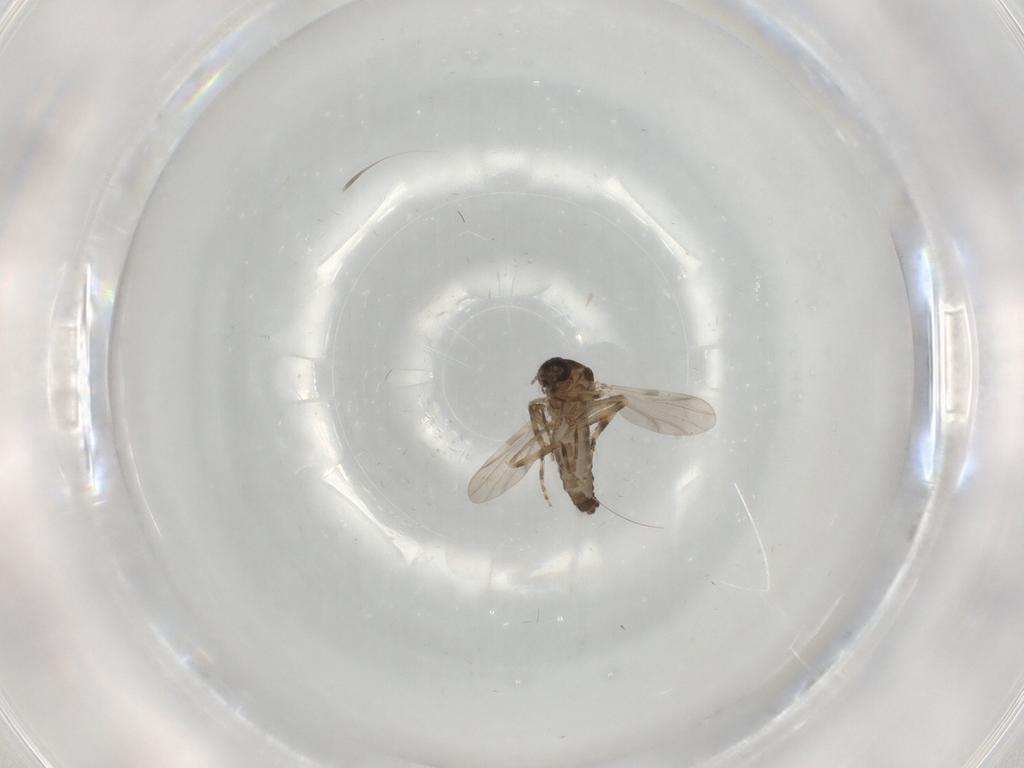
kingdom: Animalia
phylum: Arthropoda
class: Insecta
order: Diptera
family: Ceratopogonidae
